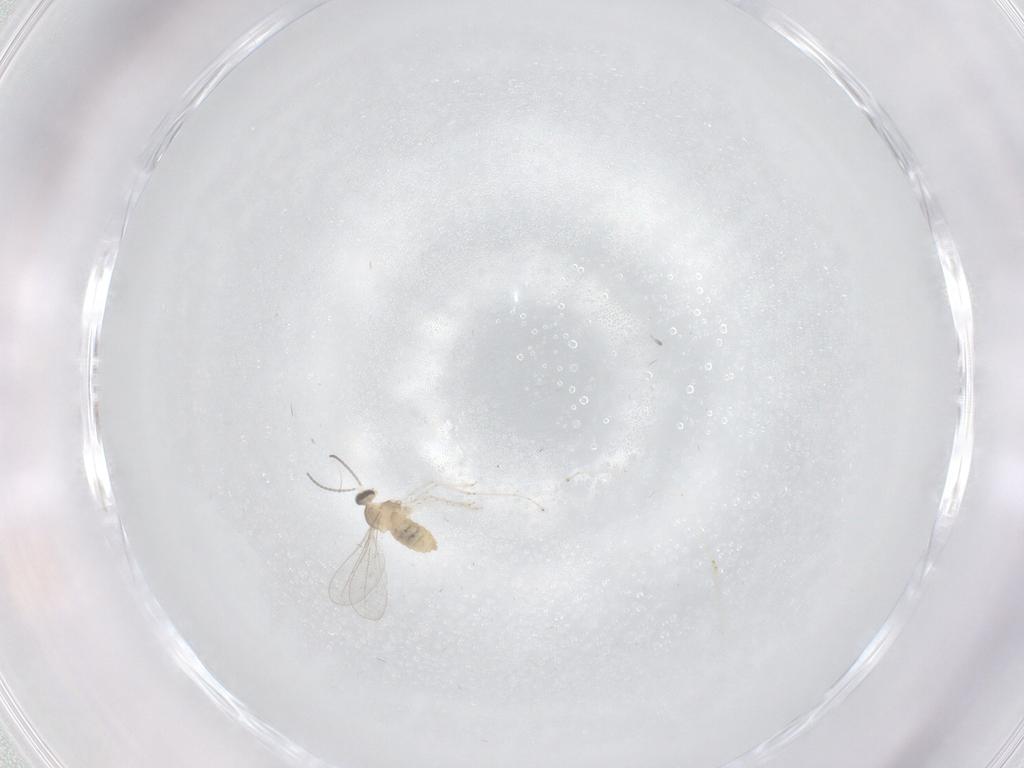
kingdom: Animalia
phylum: Arthropoda
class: Insecta
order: Diptera
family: Cecidomyiidae
